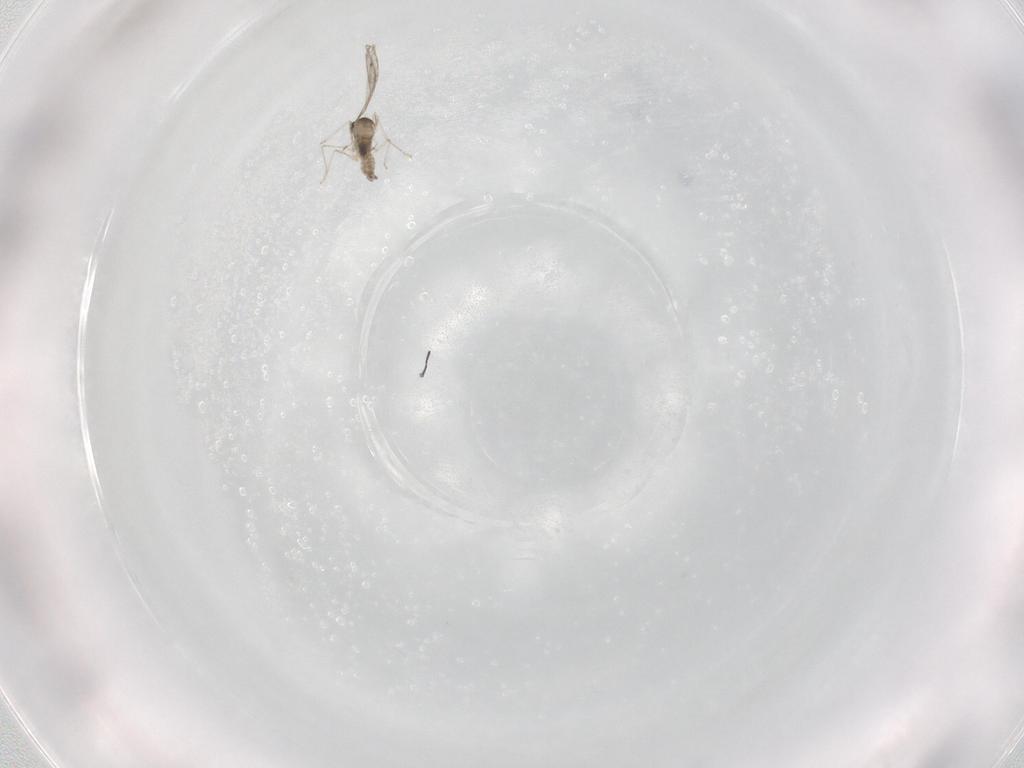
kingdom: Animalia
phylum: Arthropoda
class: Insecta
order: Diptera
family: Cecidomyiidae
